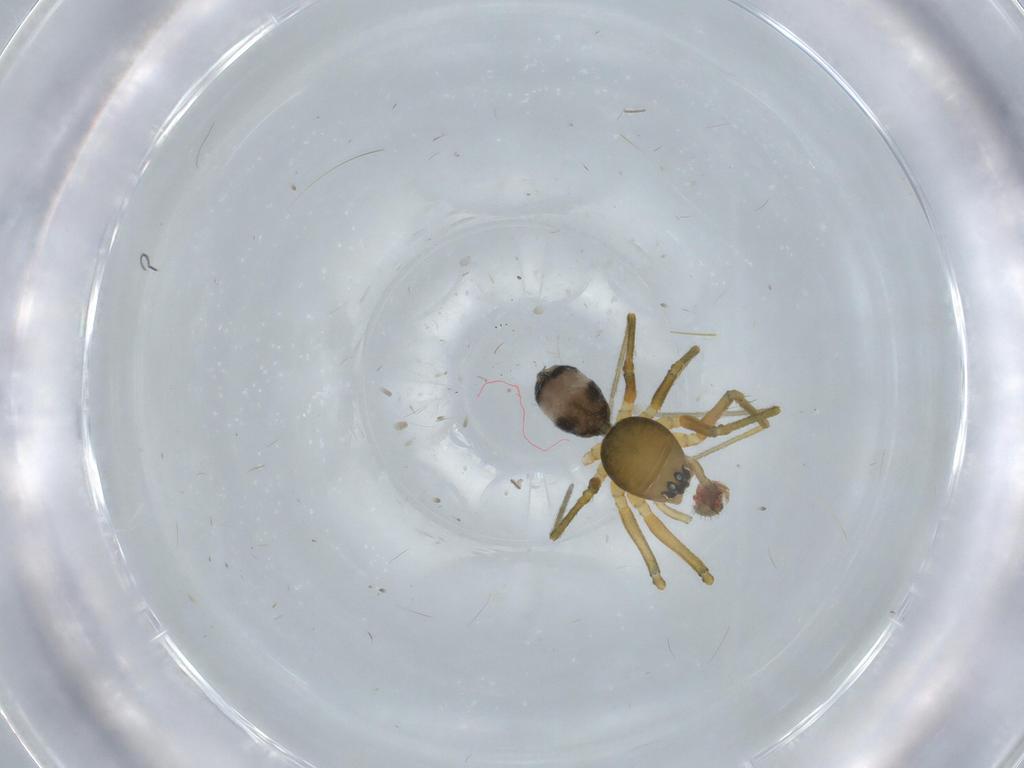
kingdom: Animalia
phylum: Arthropoda
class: Arachnida
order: Araneae
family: Linyphiidae
